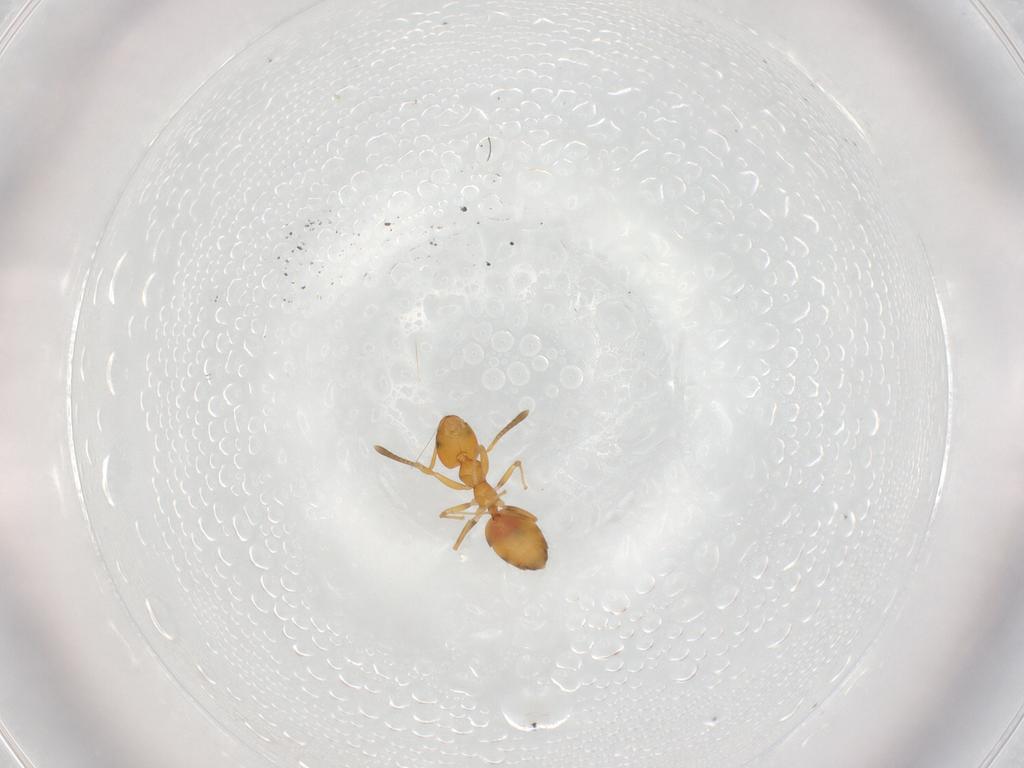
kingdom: Animalia
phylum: Arthropoda
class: Insecta
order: Hymenoptera
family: Formicidae
